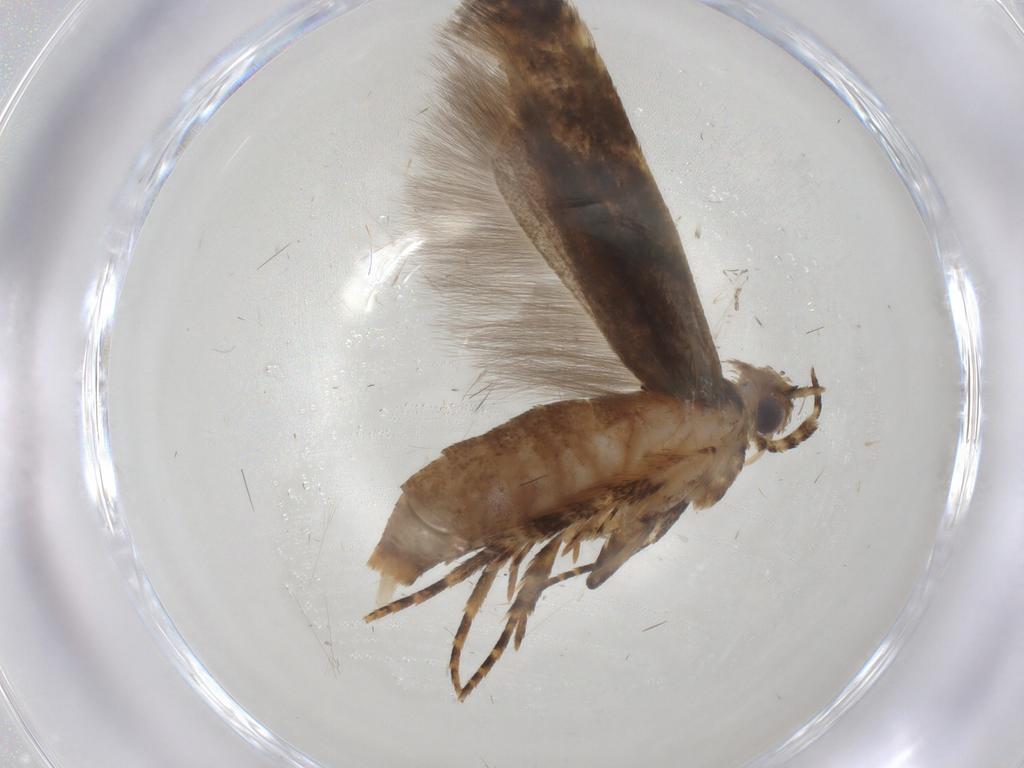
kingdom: Animalia
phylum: Arthropoda
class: Insecta
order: Lepidoptera
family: Gelechiidae
